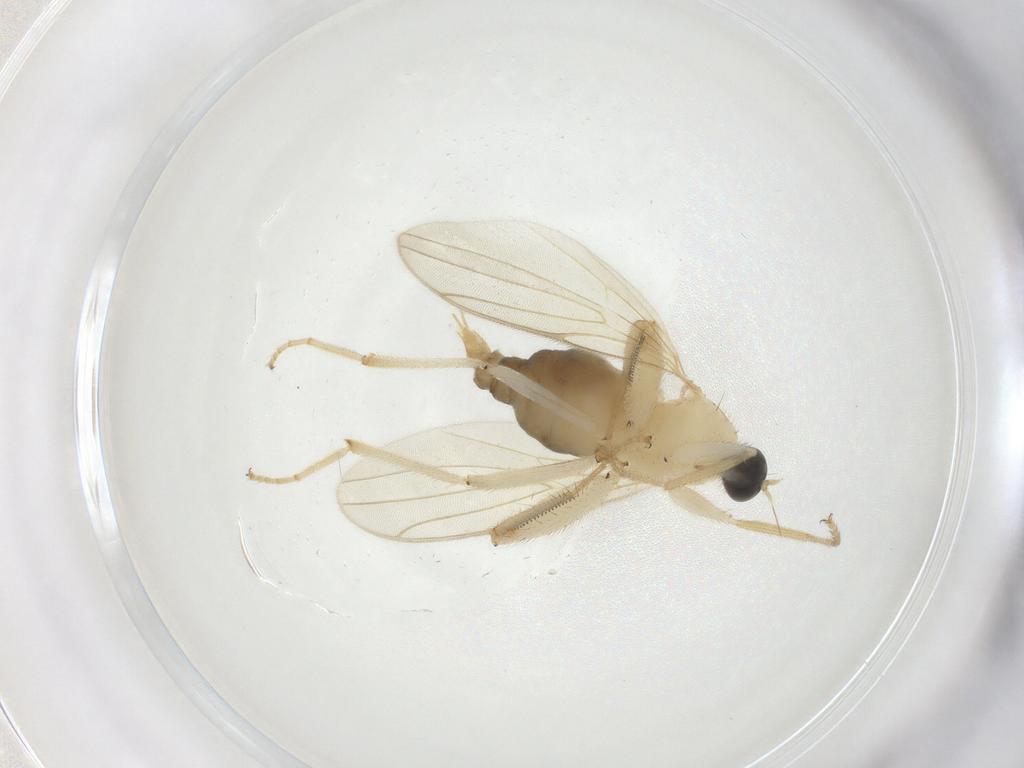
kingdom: Animalia
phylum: Arthropoda
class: Insecta
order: Diptera
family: Hybotidae
